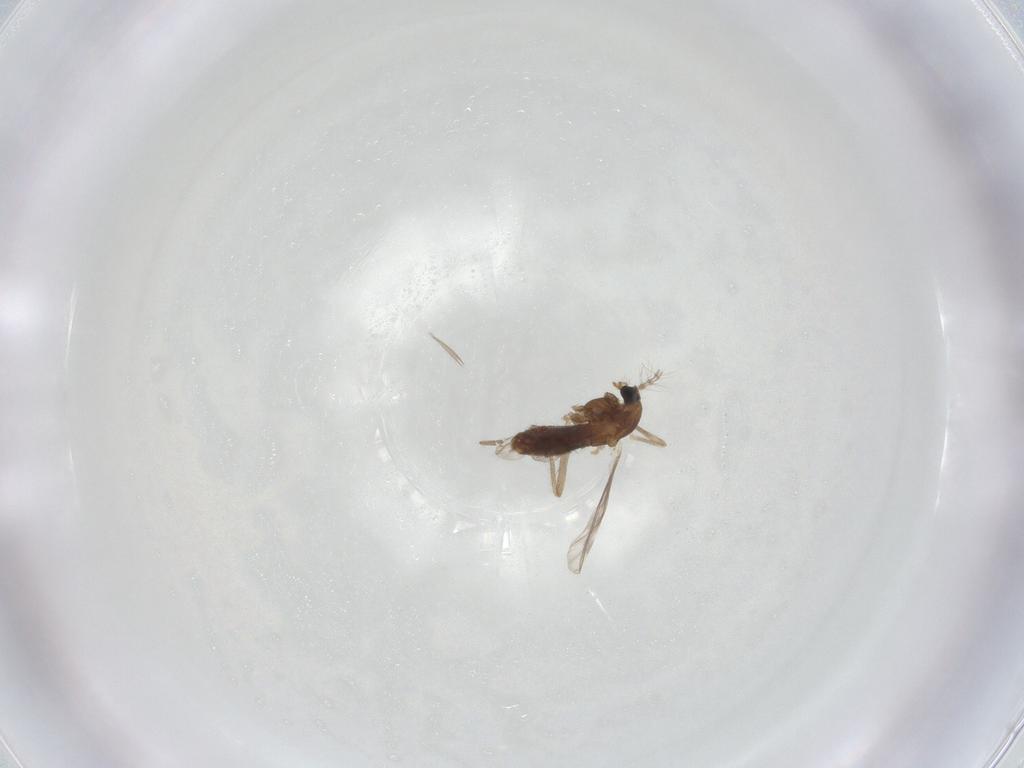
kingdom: Animalia
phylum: Arthropoda
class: Insecta
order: Diptera
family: Chironomidae
